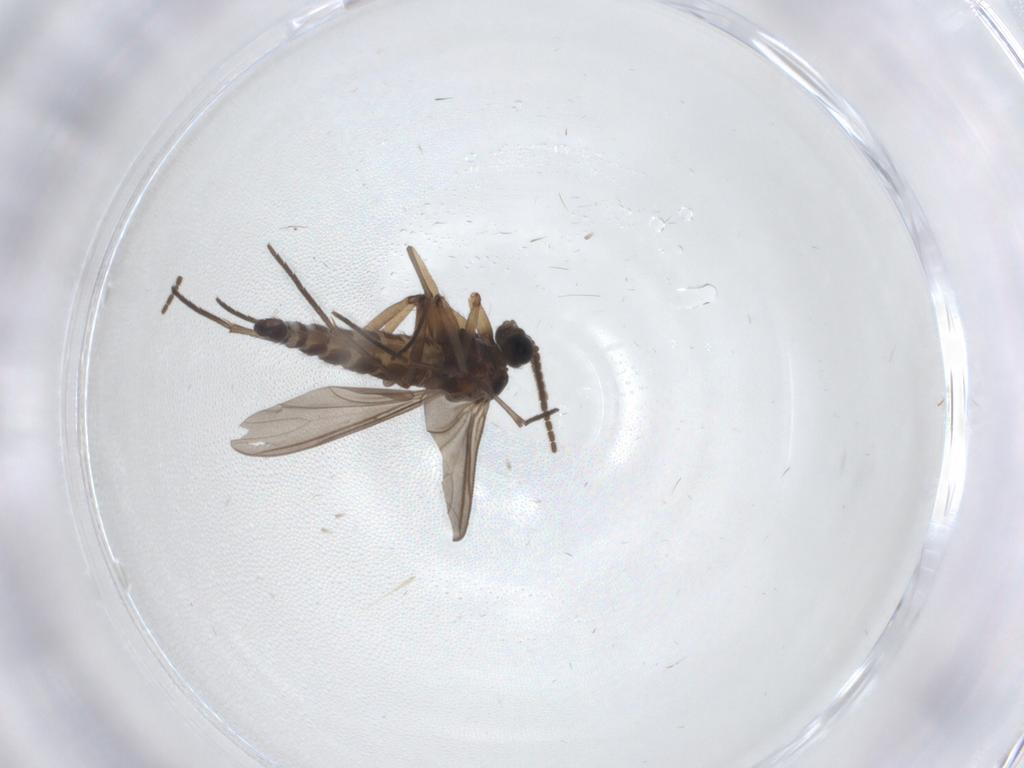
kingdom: Animalia
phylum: Arthropoda
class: Insecta
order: Diptera
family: Sciaridae
